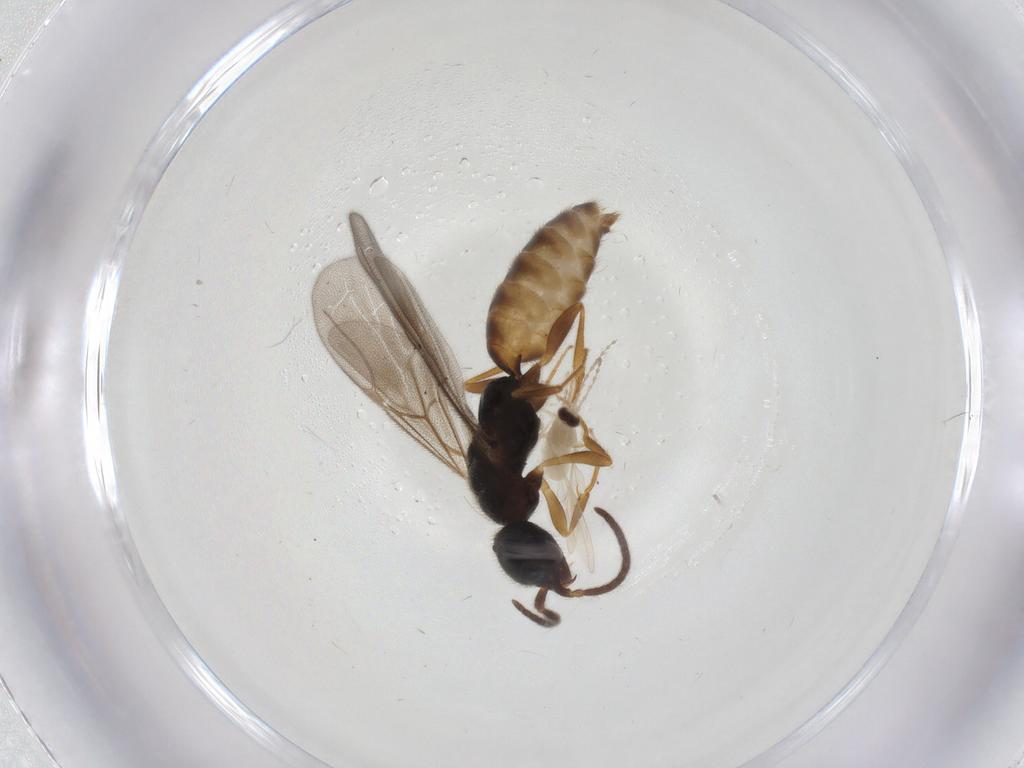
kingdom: Animalia
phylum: Arthropoda
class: Insecta
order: Diptera
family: Cecidomyiidae
